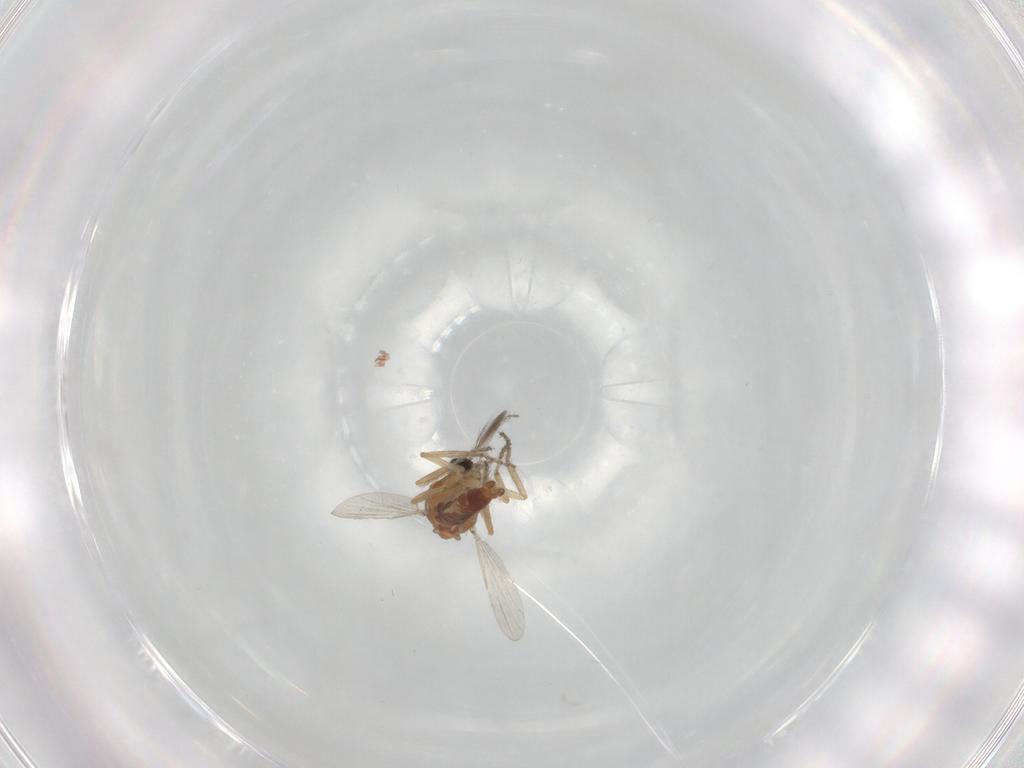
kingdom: Animalia
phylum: Arthropoda
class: Insecta
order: Diptera
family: Ceratopogonidae
